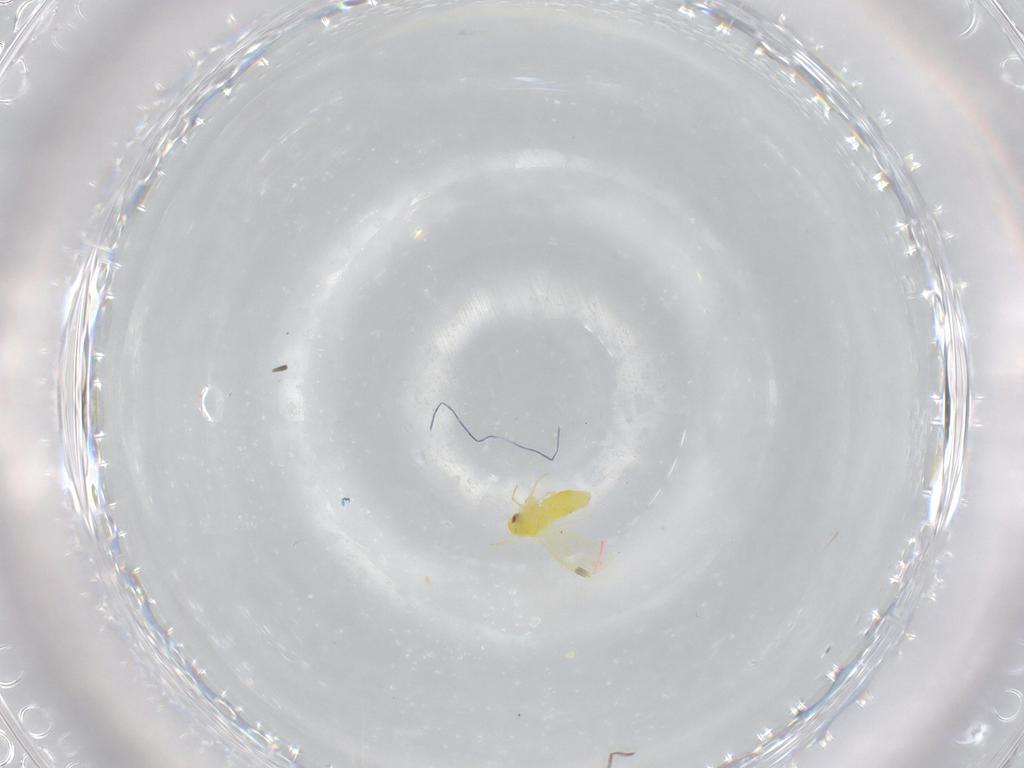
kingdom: Animalia
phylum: Arthropoda
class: Insecta
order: Hemiptera
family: Aleyrodidae
